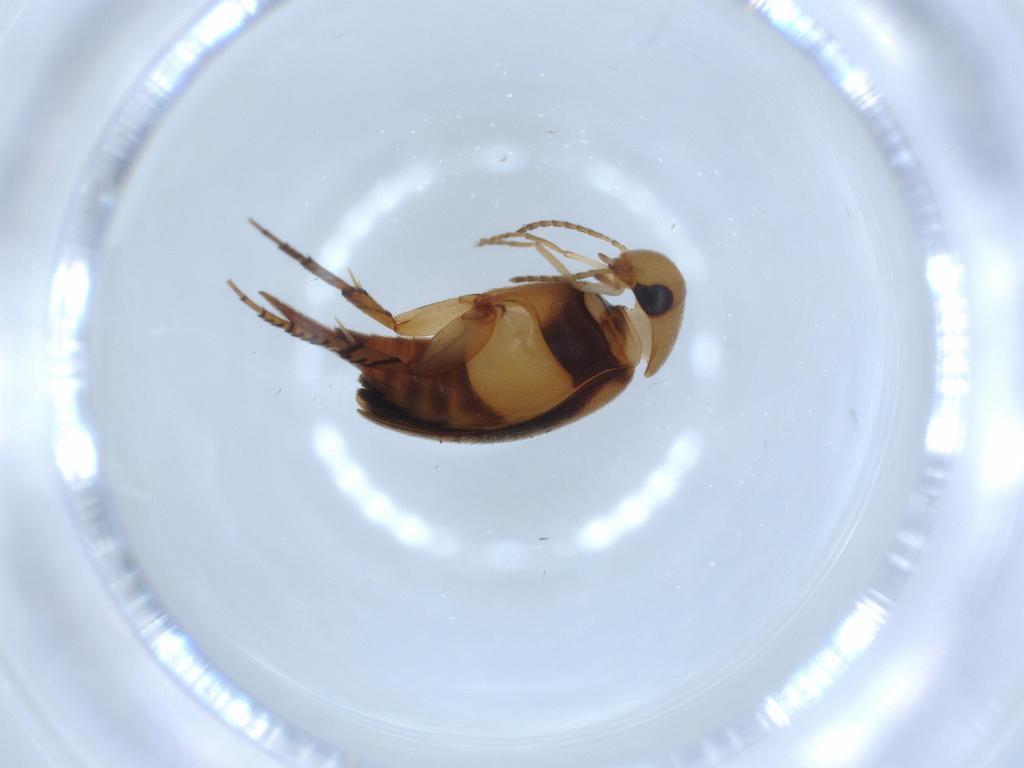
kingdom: Animalia
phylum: Arthropoda
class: Insecta
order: Coleoptera
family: Mordellidae
